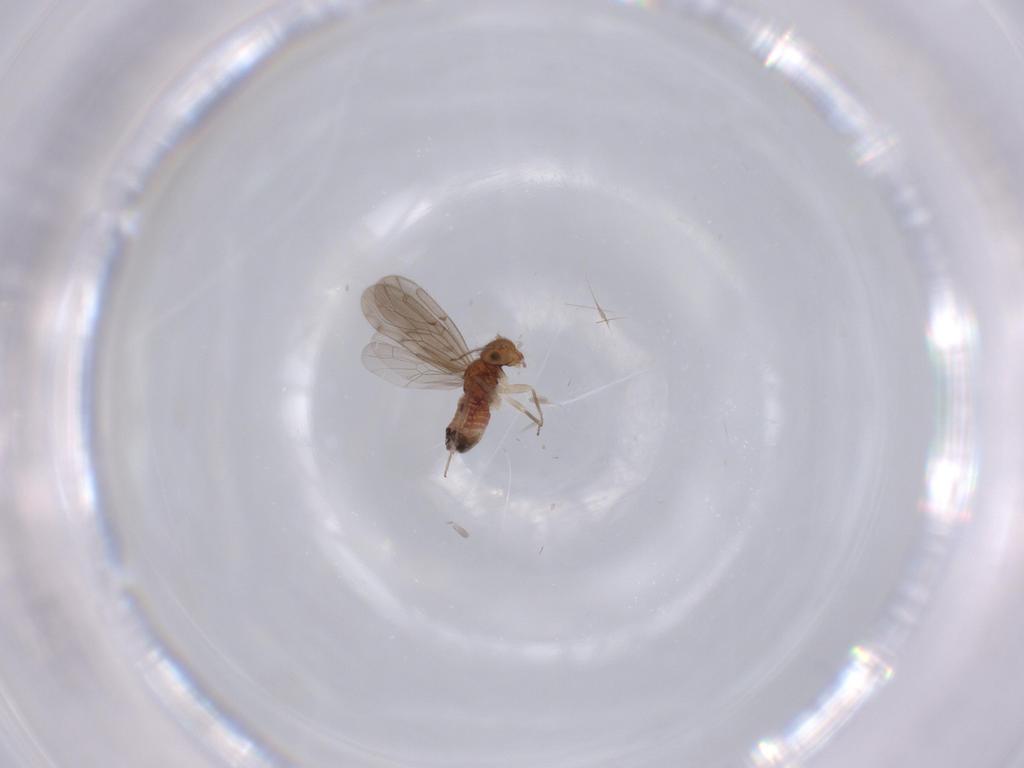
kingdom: Animalia
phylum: Arthropoda
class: Insecta
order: Psocodea
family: Ectopsocidae
